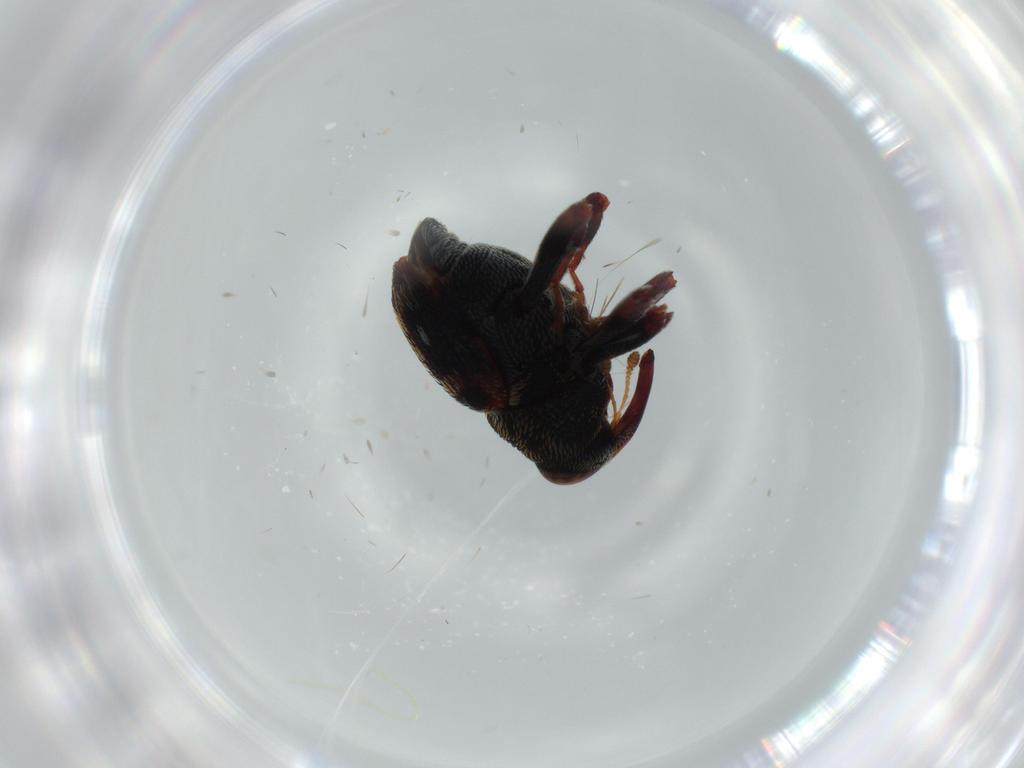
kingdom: Animalia
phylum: Arthropoda
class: Insecta
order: Coleoptera
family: Curculionidae
